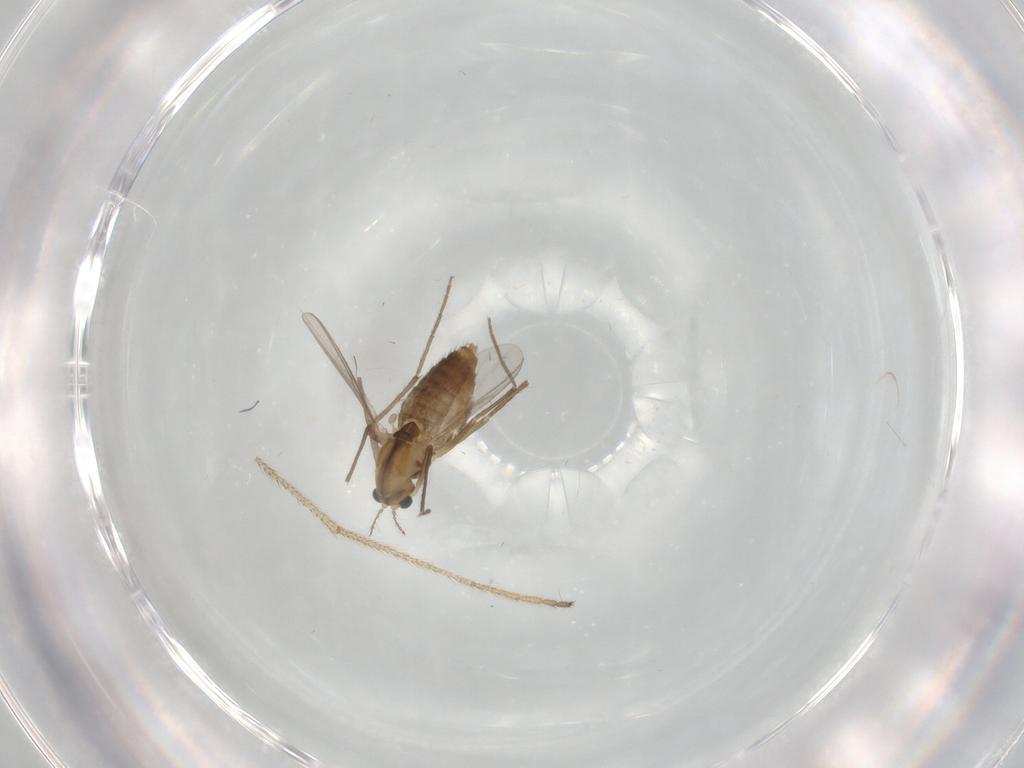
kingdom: Animalia
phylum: Arthropoda
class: Insecta
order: Diptera
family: Chironomidae
